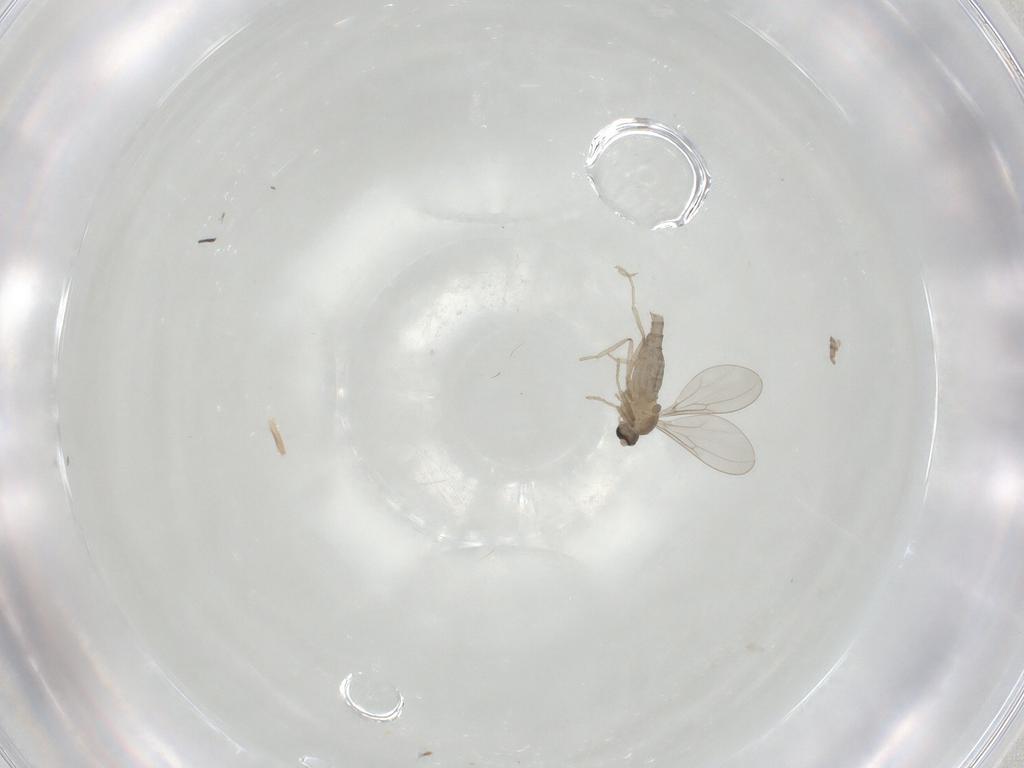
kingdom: Animalia
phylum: Arthropoda
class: Insecta
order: Diptera
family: Cecidomyiidae
